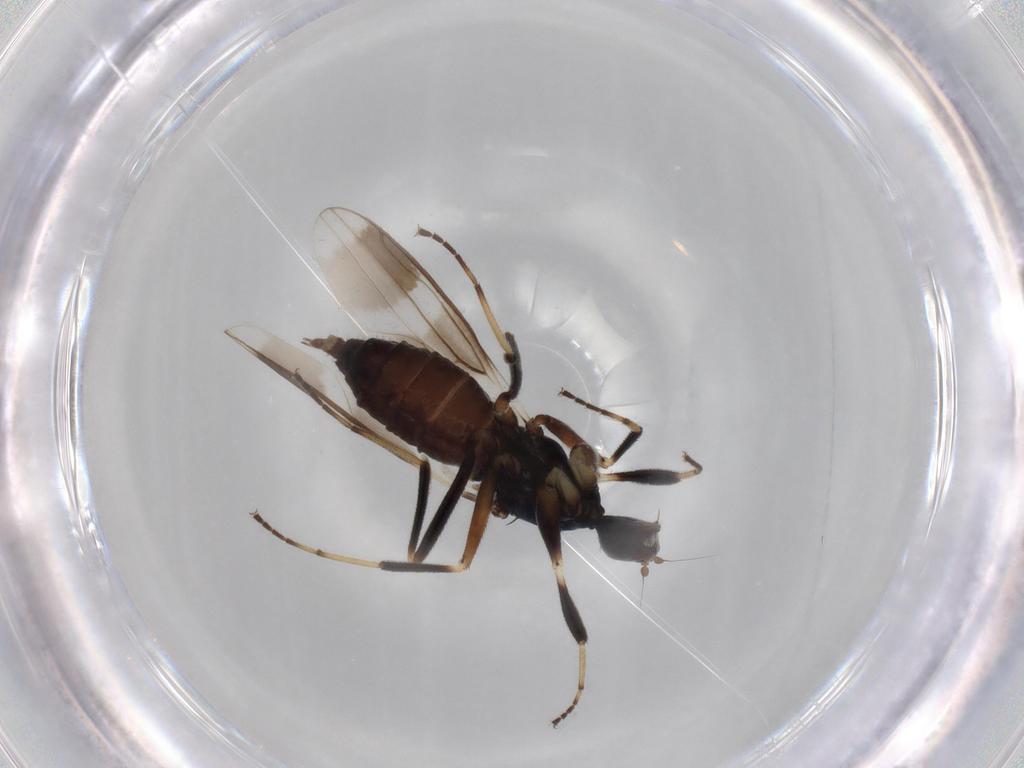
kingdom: Animalia
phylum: Arthropoda
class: Insecta
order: Diptera
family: Hybotidae
